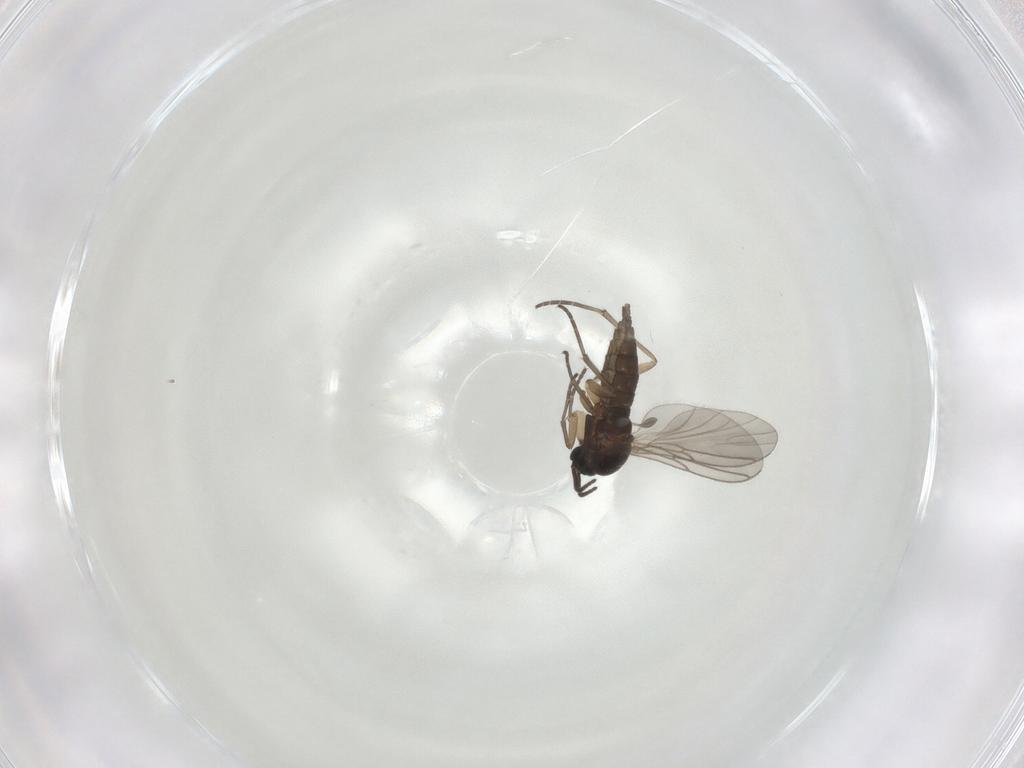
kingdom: Animalia
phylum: Arthropoda
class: Insecta
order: Diptera
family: Sciaridae
